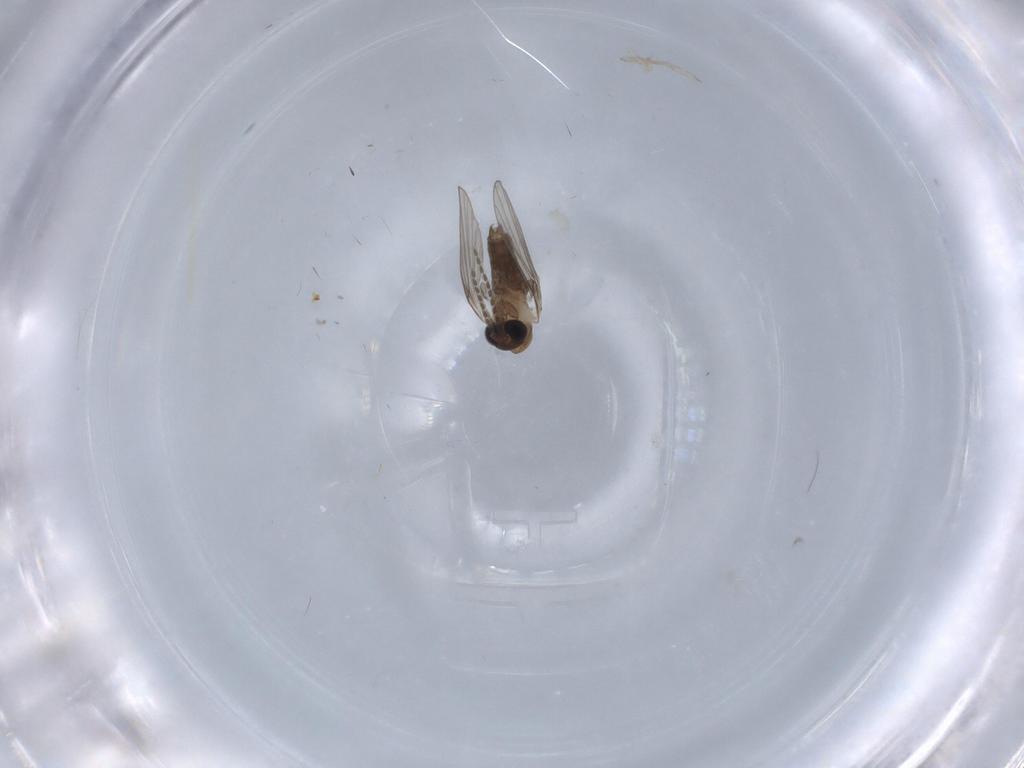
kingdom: Animalia
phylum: Arthropoda
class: Insecta
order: Diptera
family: Psychodidae
